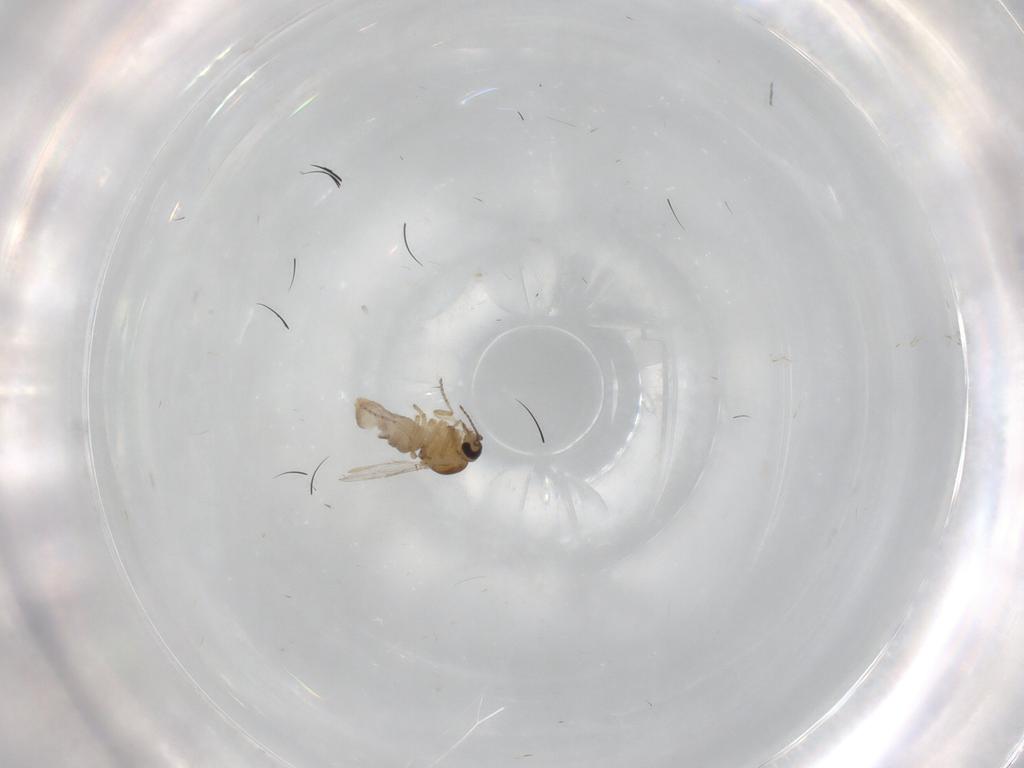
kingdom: Animalia
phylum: Arthropoda
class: Insecta
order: Diptera
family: Ceratopogonidae
